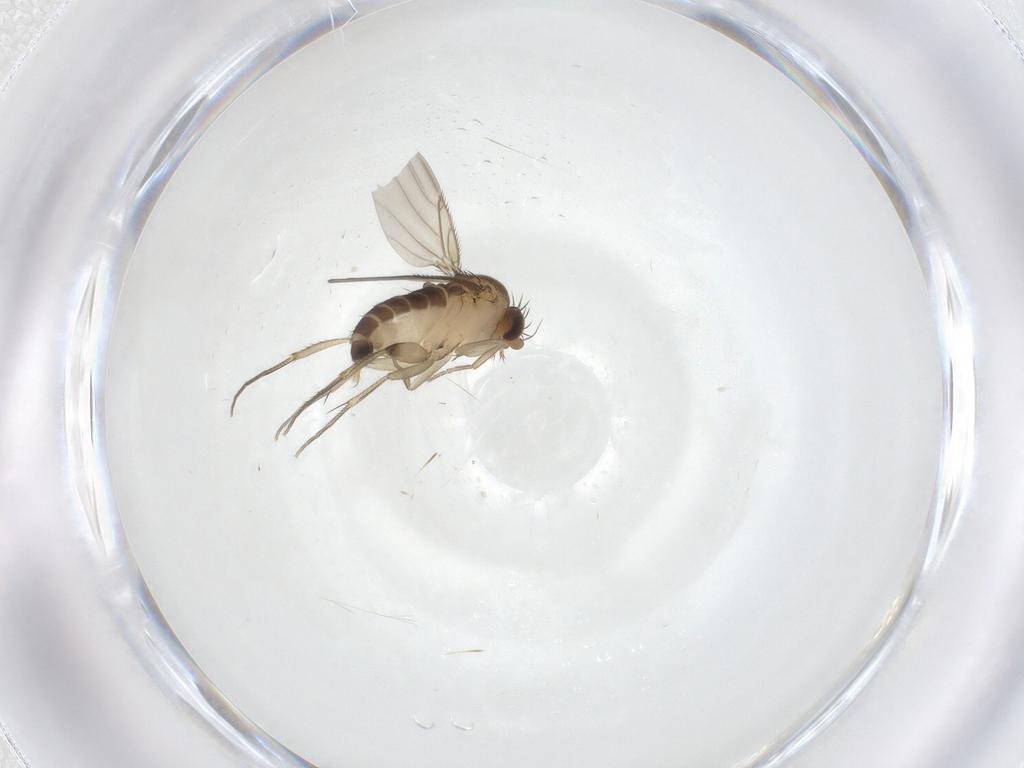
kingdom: Animalia
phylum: Arthropoda
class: Insecta
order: Diptera
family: Phoridae
